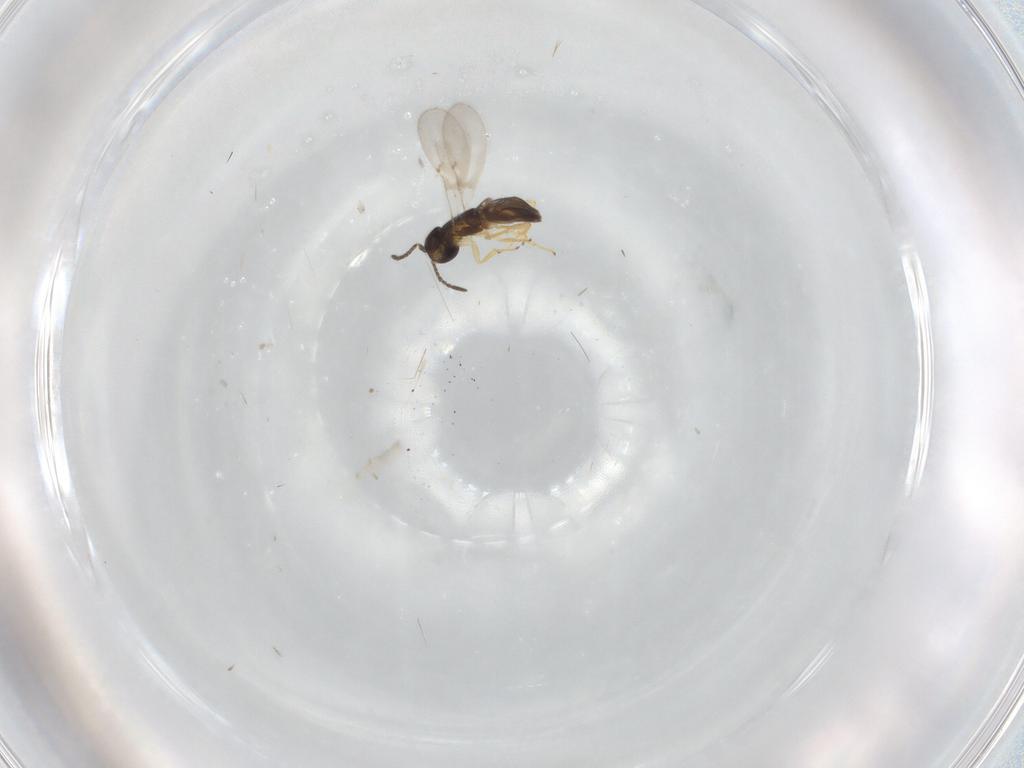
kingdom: Animalia
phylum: Arthropoda
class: Insecta
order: Hymenoptera
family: Encyrtidae
